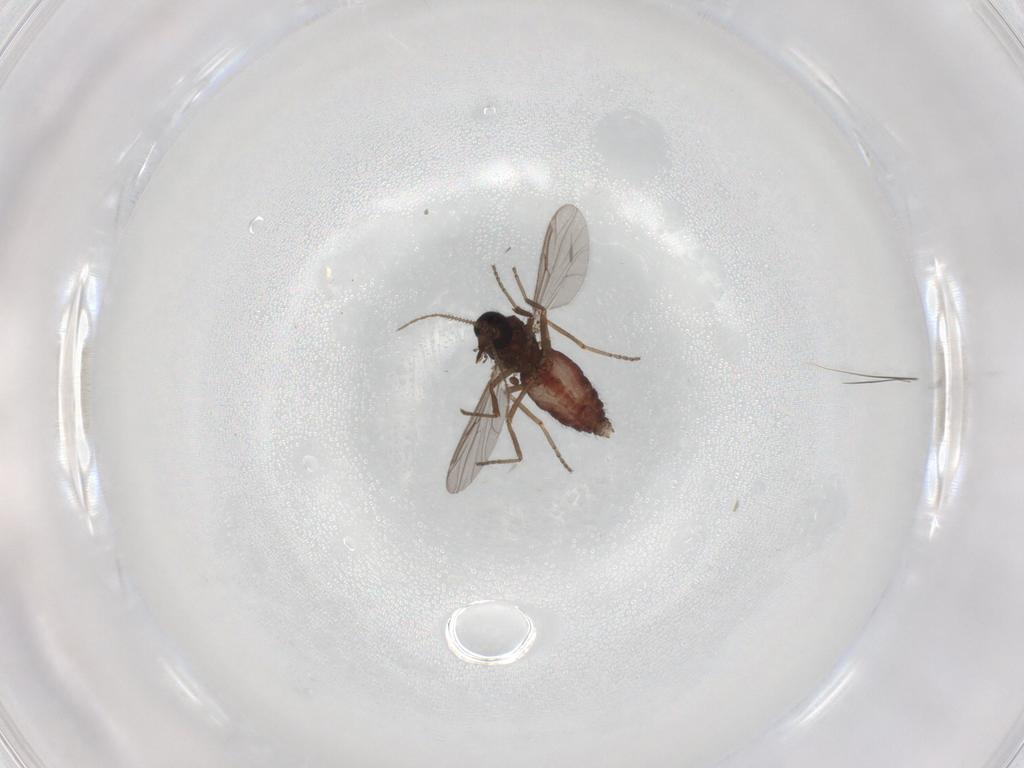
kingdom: Animalia
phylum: Arthropoda
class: Insecta
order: Diptera
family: Ceratopogonidae
